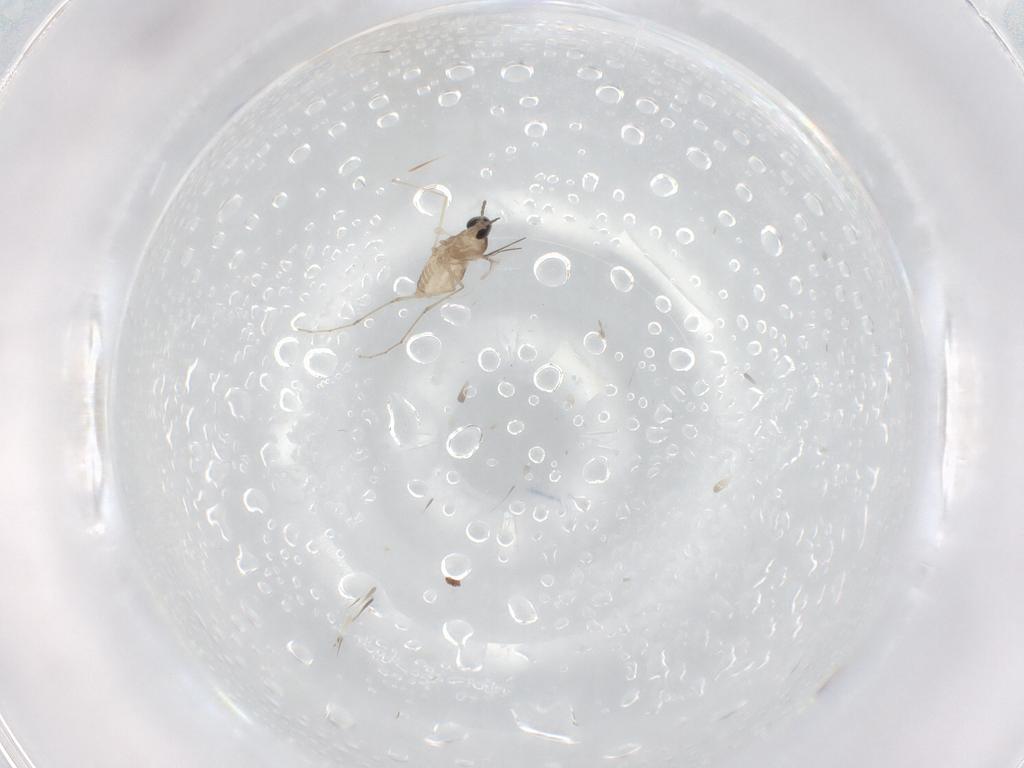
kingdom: Animalia
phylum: Arthropoda
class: Insecta
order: Diptera
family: Cecidomyiidae
